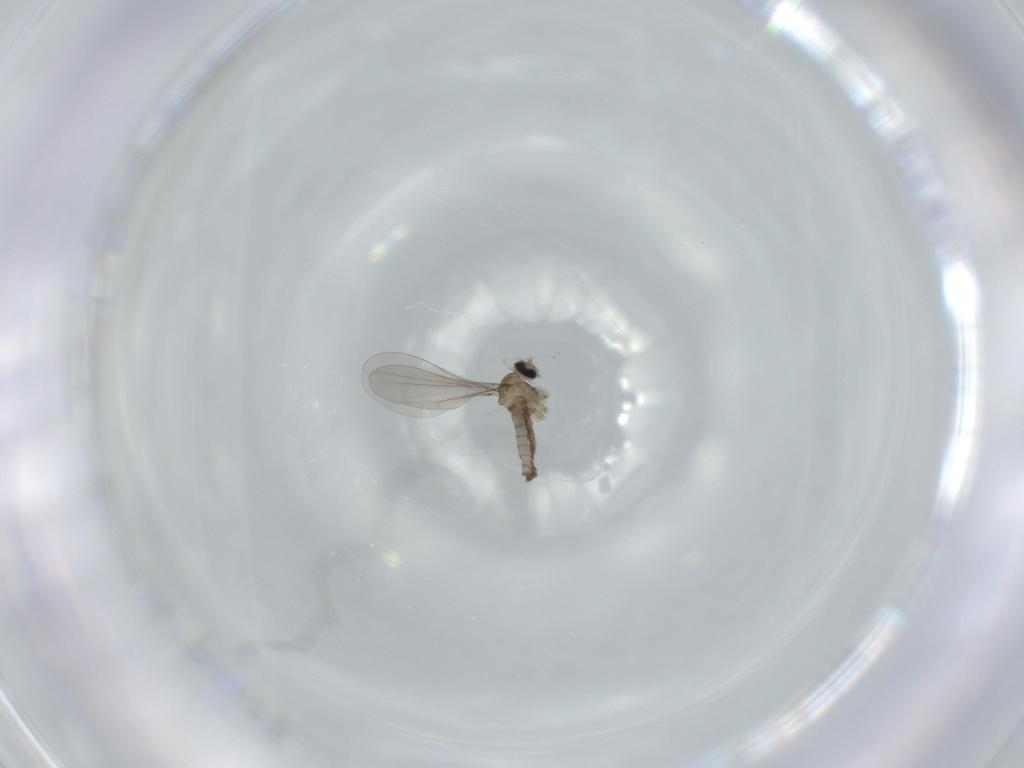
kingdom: Animalia
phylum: Arthropoda
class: Insecta
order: Diptera
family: Cecidomyiidae
